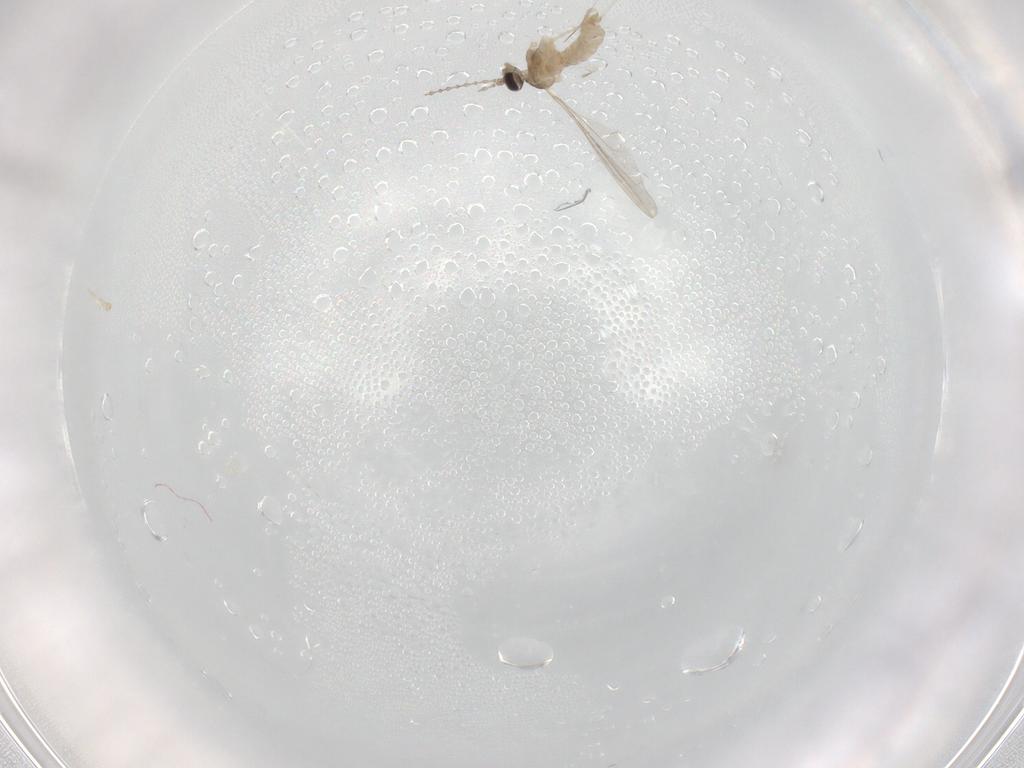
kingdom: Animalia
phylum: Arthropoda
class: Insecta
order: Diptera
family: Cecidomyiidae
